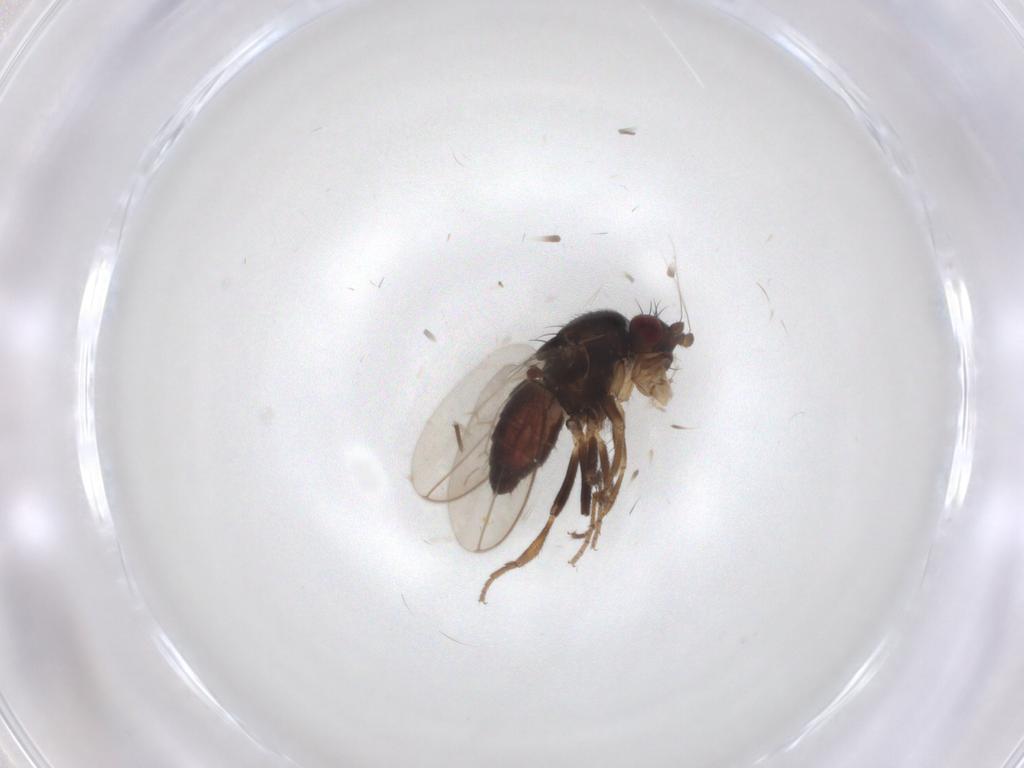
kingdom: Animalia
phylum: Arthropoda
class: Insecta
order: Diptera
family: Sphaeroceridae
